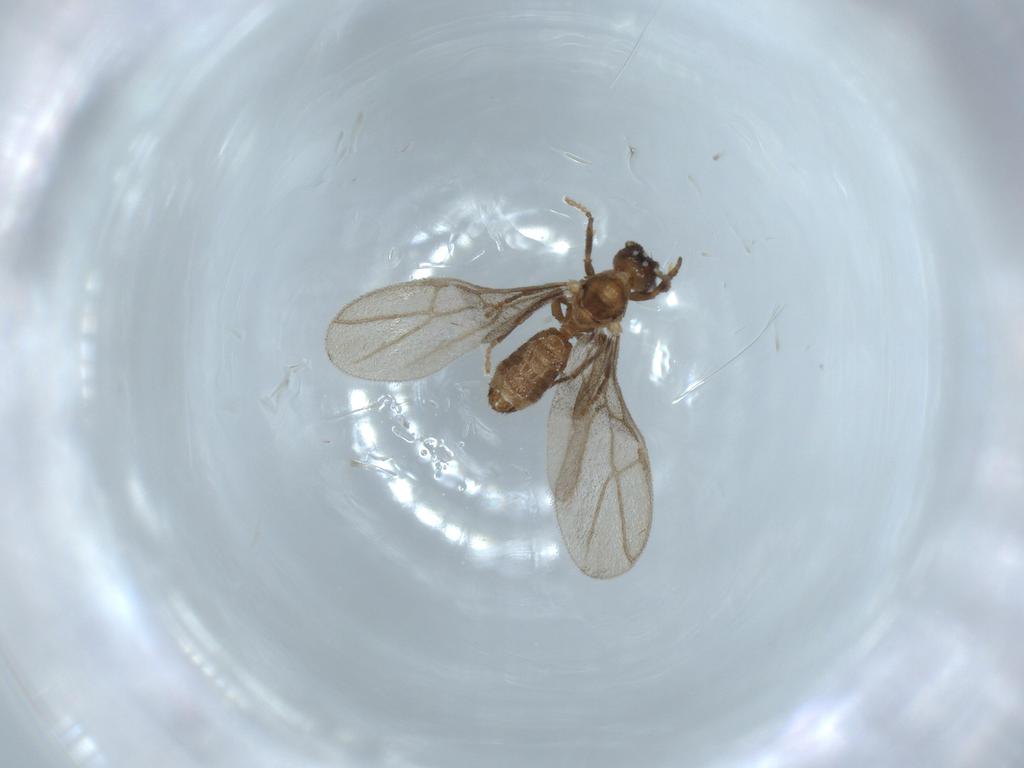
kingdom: Animalia
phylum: Arthropoda
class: Insecta
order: Hymenoptera
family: Formicidae
